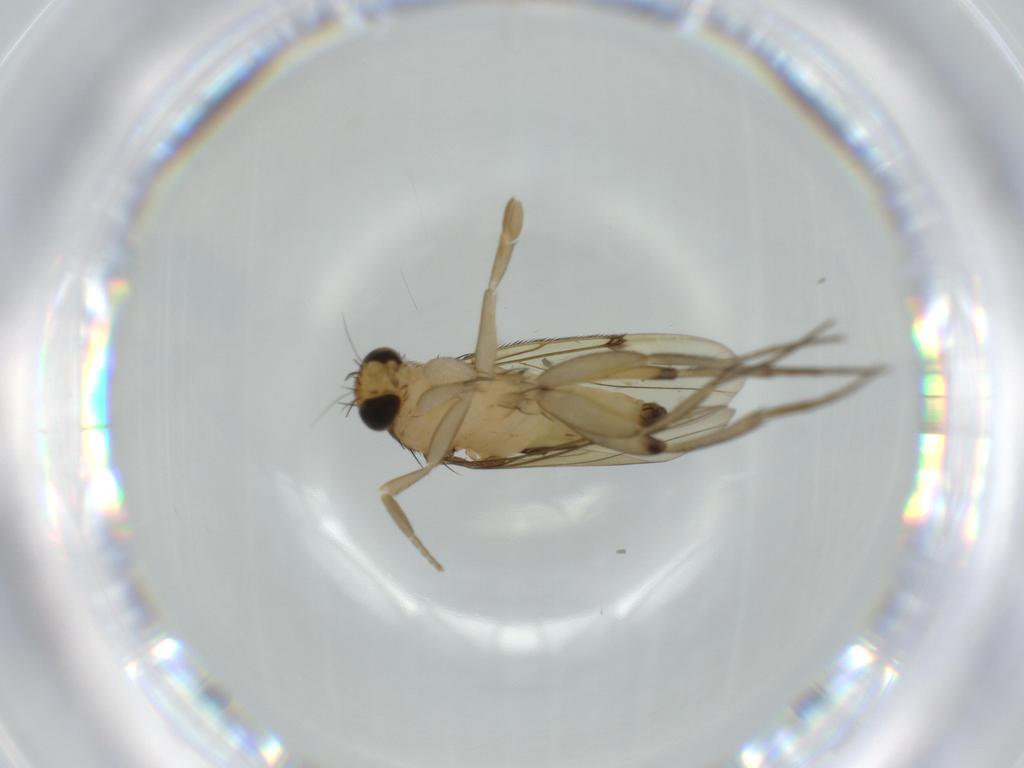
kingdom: Animalia
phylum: Arthropoda
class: Insecta
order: Diptera
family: Phoridae
